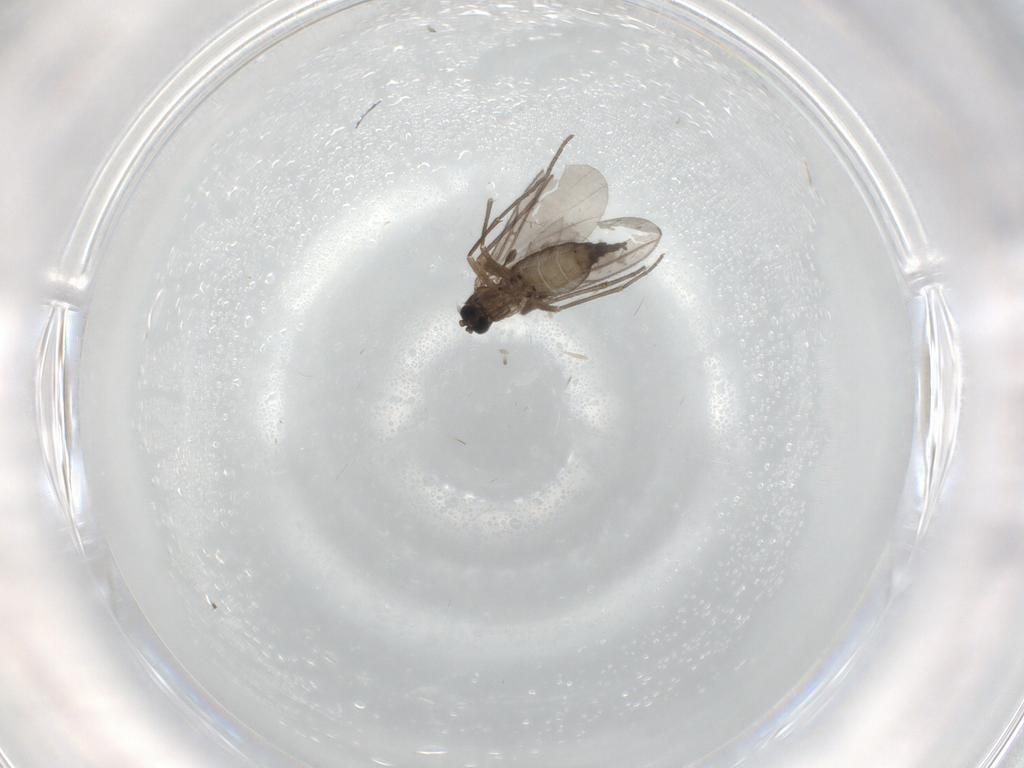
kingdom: Animalia
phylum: Arthropoda
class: Insecta
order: Diptera
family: Sciaridae
